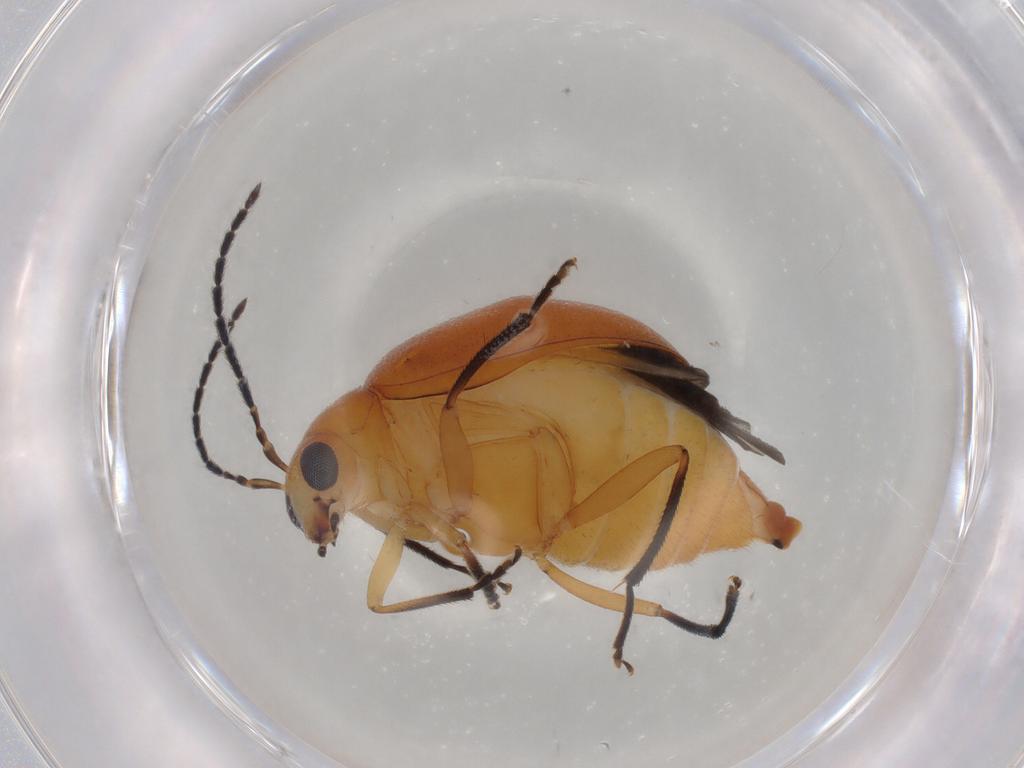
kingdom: Animalia
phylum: Arthropoda
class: Insecta
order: Coleoptera
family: Chrysomelidae
